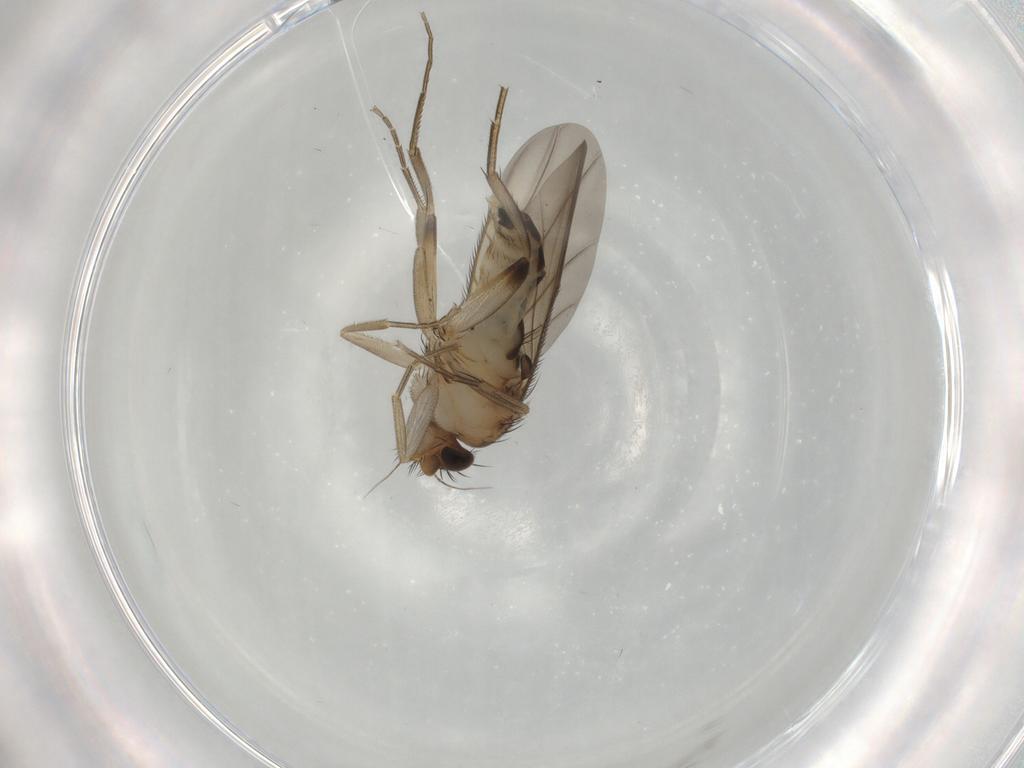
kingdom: Animalia
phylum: Arthropoda
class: Insecta
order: Diptera
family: Phoridae
